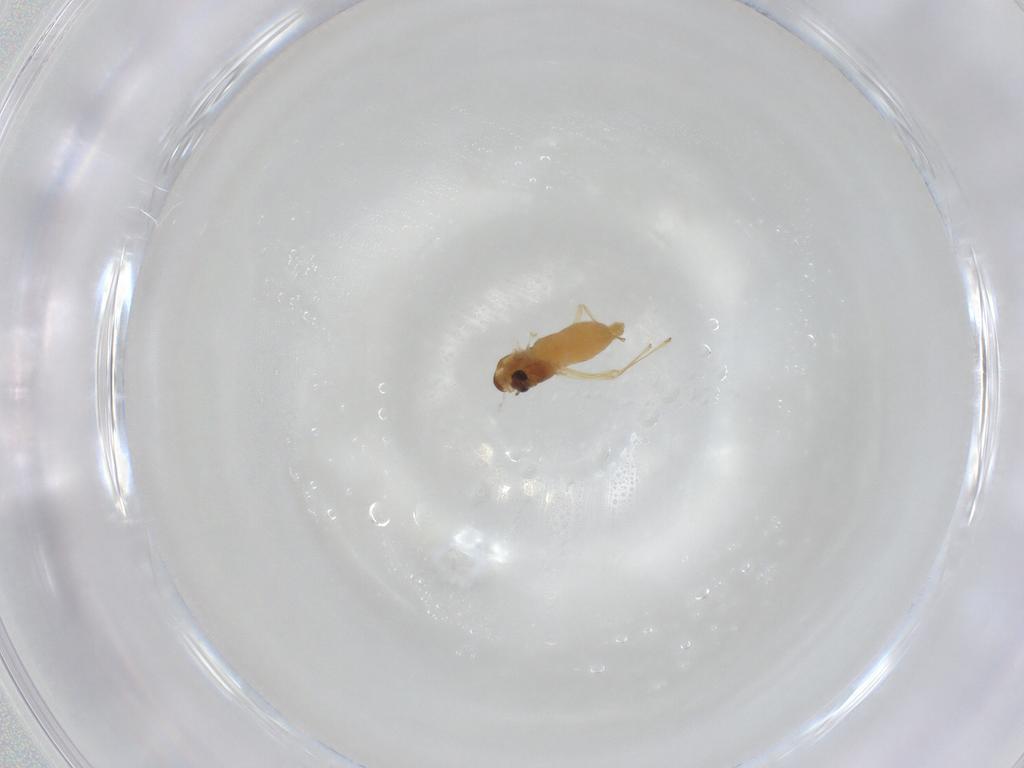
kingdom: Animalia
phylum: Arthropoda
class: Insecta
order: Diptera
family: Chironomidae
